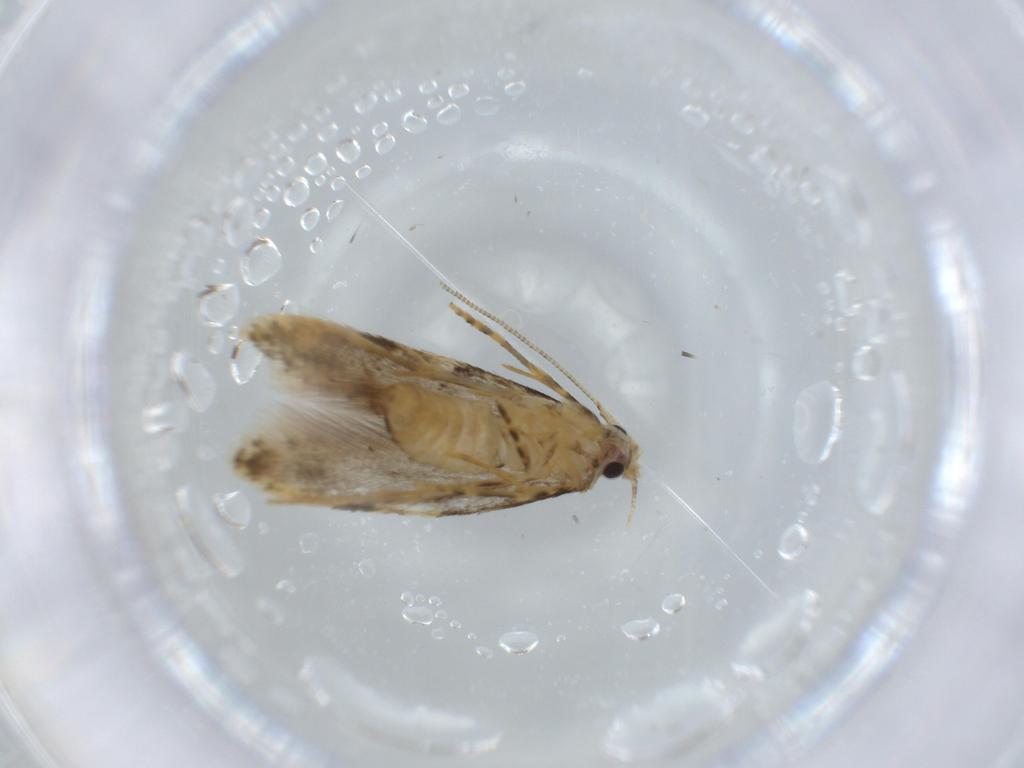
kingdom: Animalia
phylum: Arthropoda
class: Insecta
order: Lepidoptera
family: Tineidae
